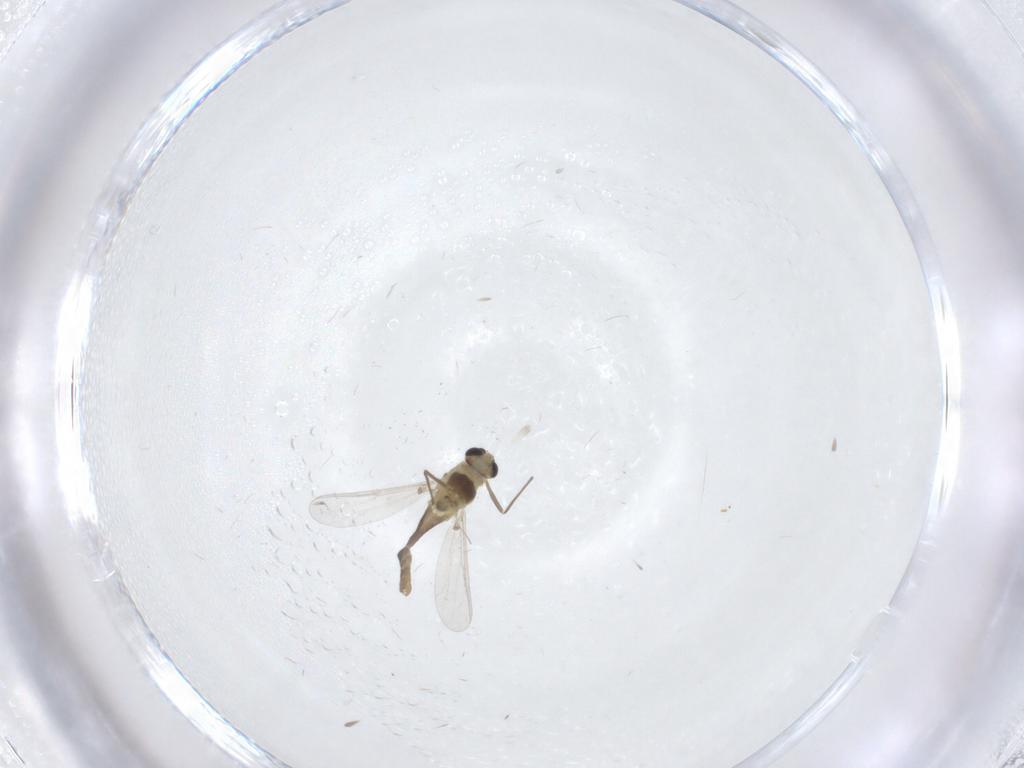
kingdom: Animalia
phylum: Arthropoda
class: Insecta
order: Diptera
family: Chironomidae
